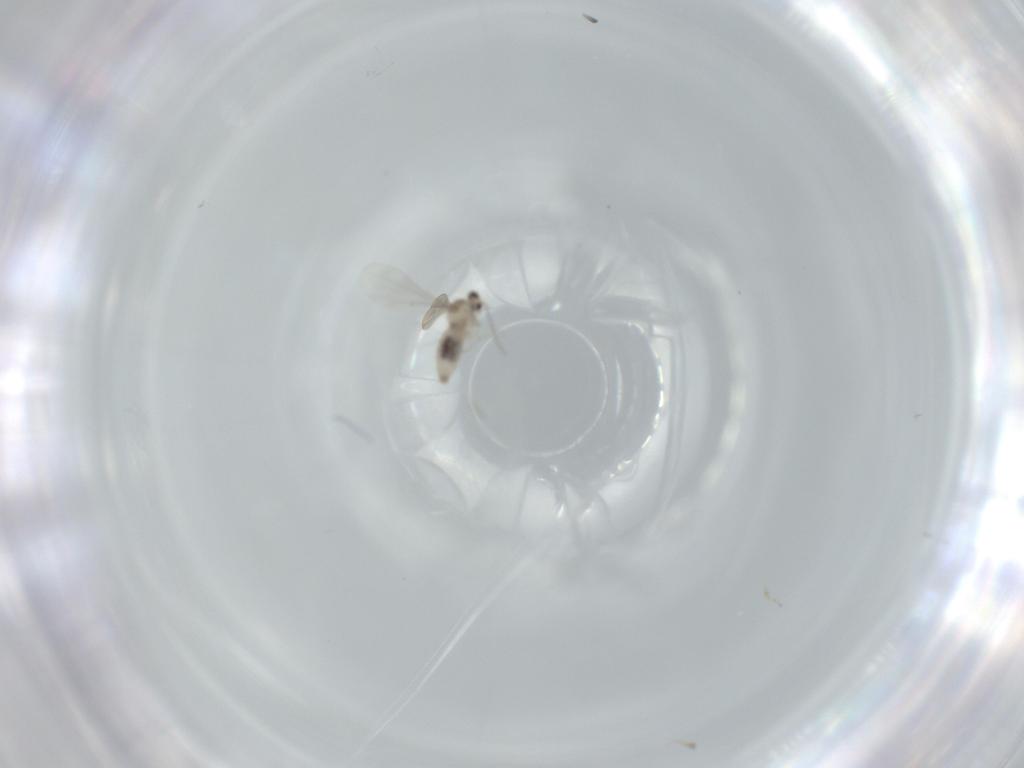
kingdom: Animalia
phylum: Arthropoda
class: Insecta
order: Diptera
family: Cecidomyiidae
